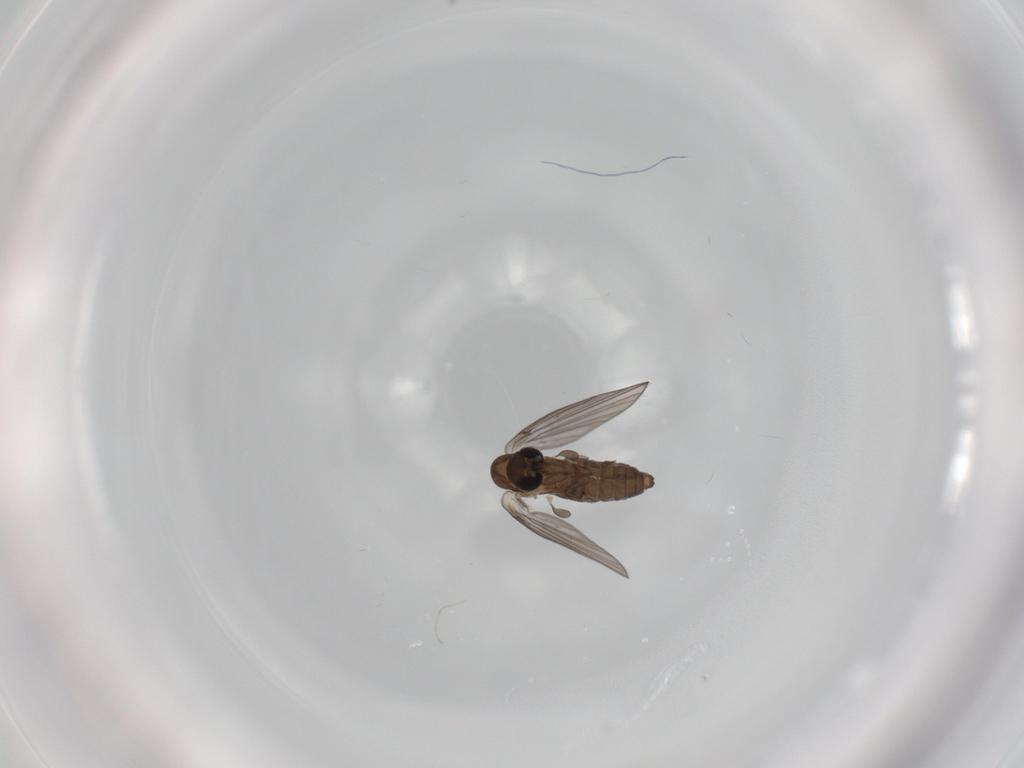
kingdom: Animalia
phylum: Arthropoda
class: Insecta
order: Diptera
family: Psychodidae
